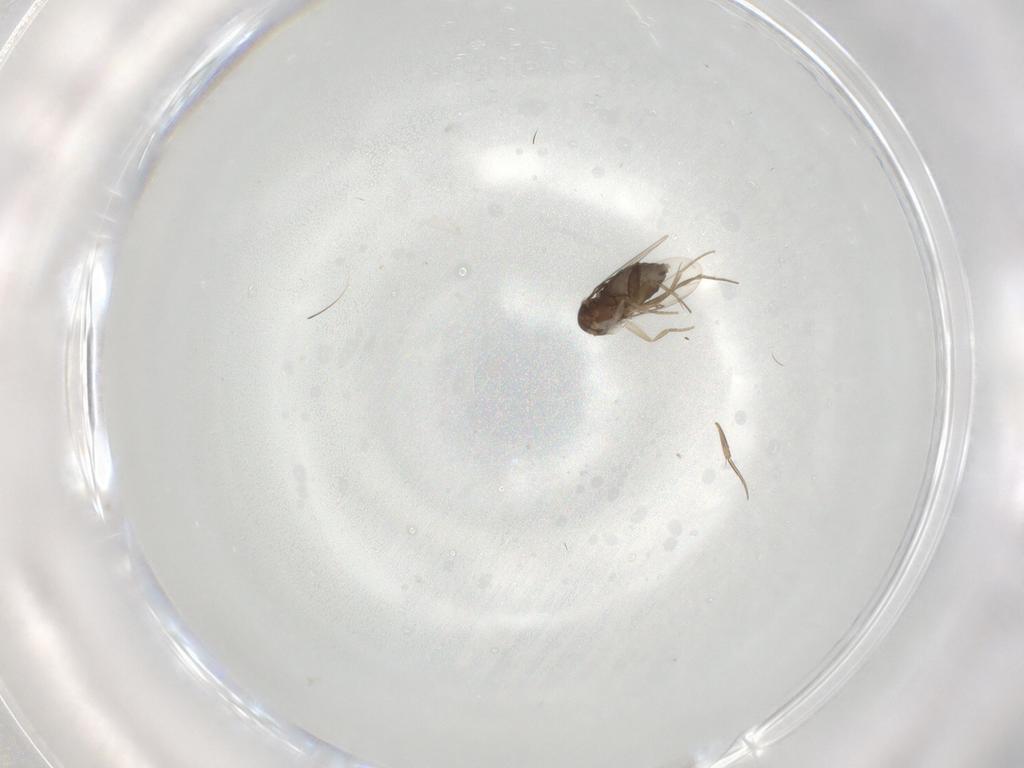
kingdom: Animalia
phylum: Arthropoda
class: Insecta
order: Diptera
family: Phoridae
